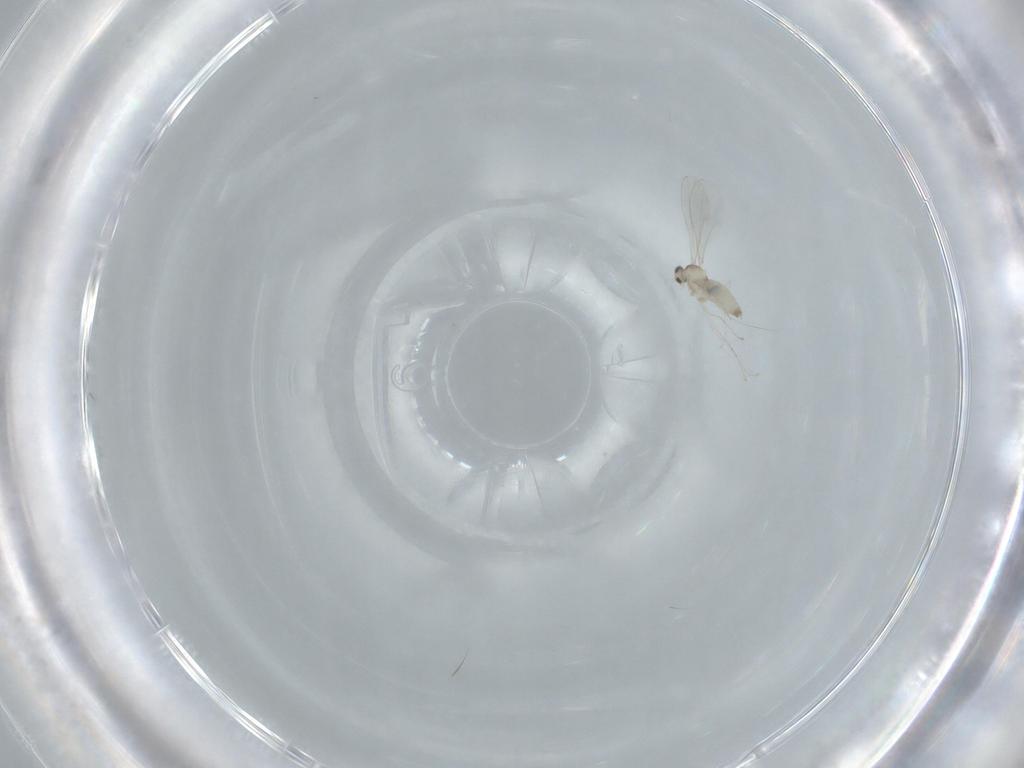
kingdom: Animalia
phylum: Arthropoda
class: Insecta
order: Diptera
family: Cecidomyiidae
